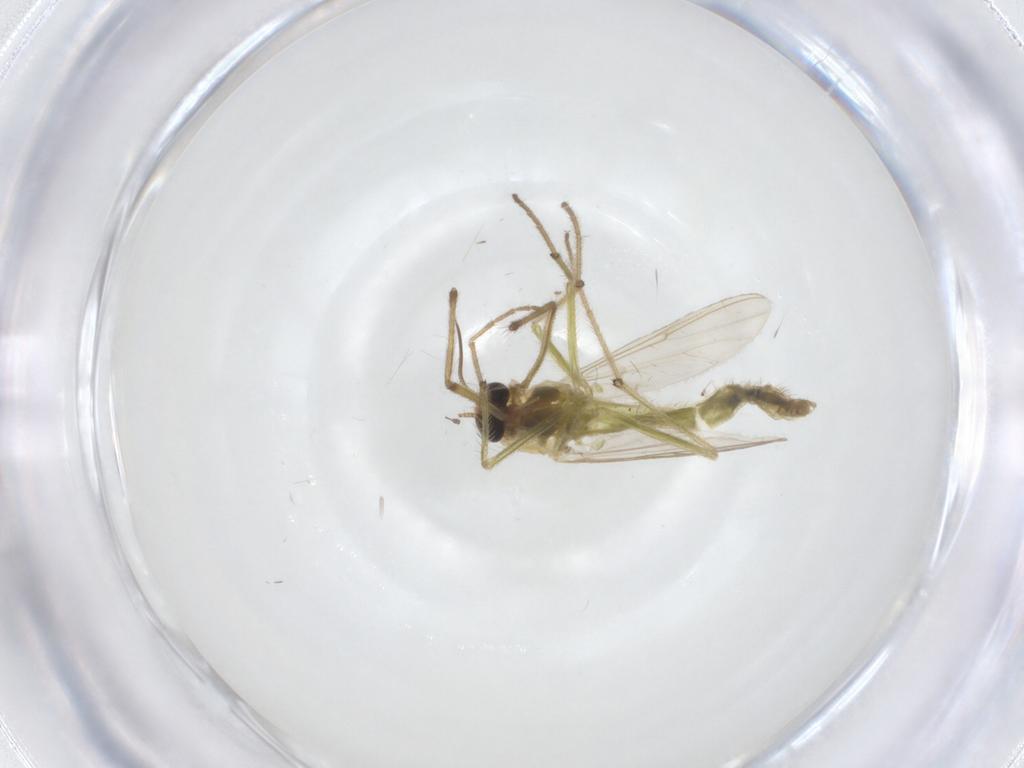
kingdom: Animalia
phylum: Arthropoda
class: Insecta
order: Diptera
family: Chironomidae
